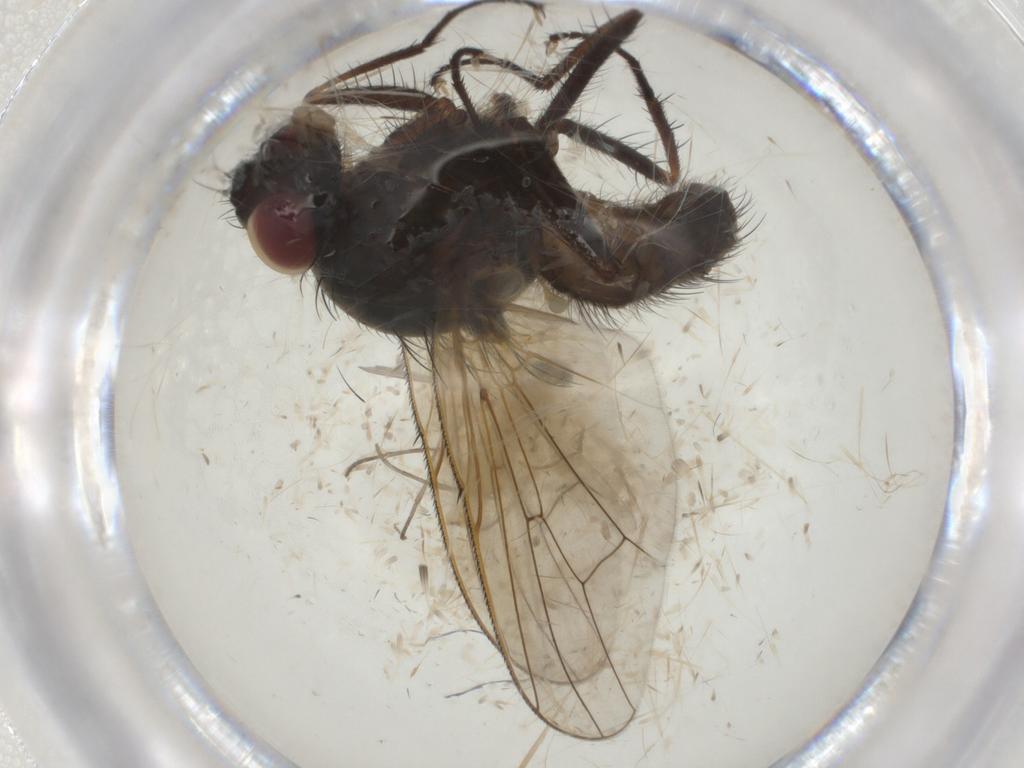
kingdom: Animalia
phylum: Arthropoda
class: Insecta
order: Diptera
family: Anthomyiidae
